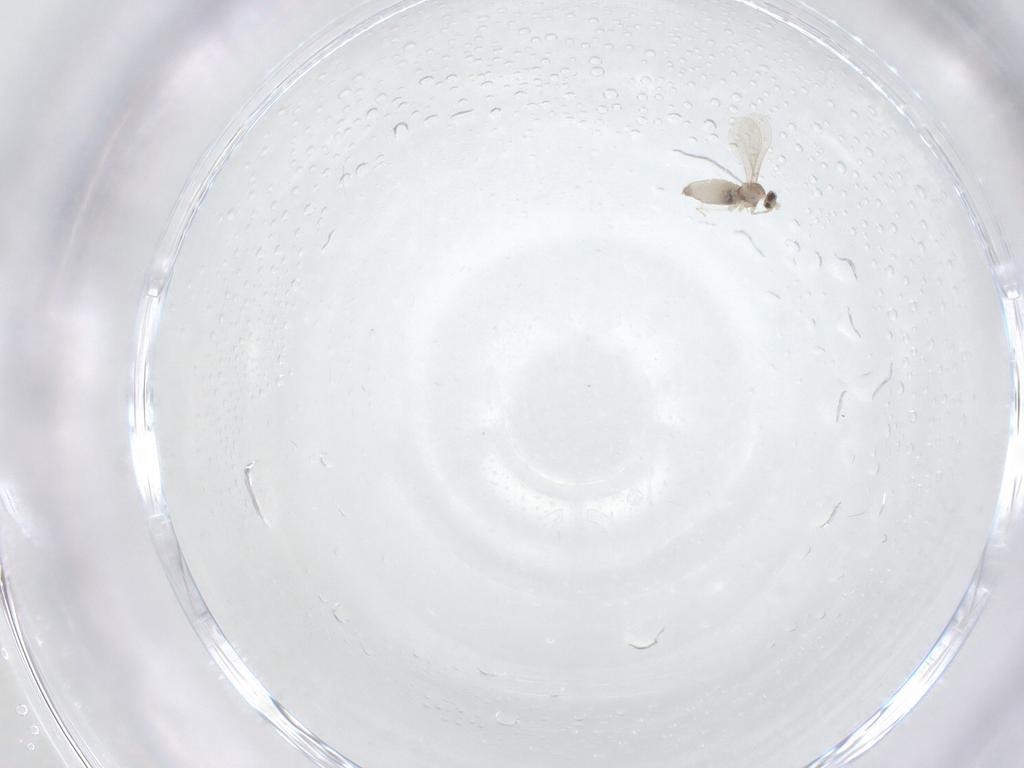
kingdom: Animalia
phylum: Arthropoda
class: Insecta
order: Diptera
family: Cecidomyiidae
